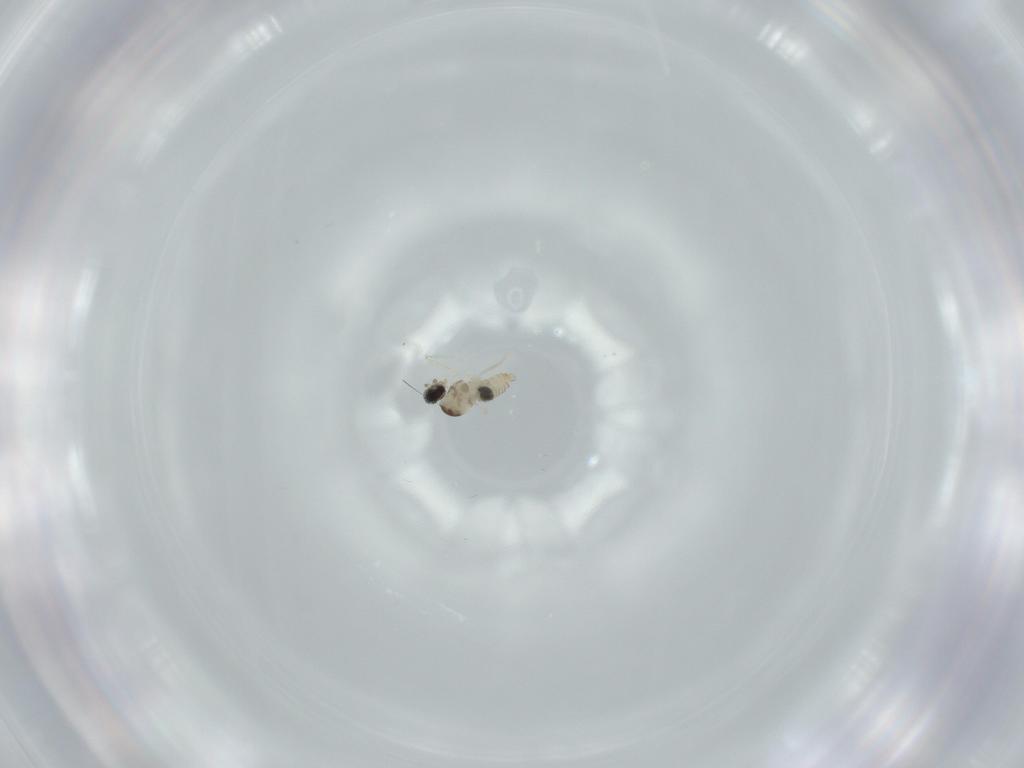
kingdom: Animalia
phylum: Arthropoda
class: Insecta
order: Diptera
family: Cecidomyiidae
